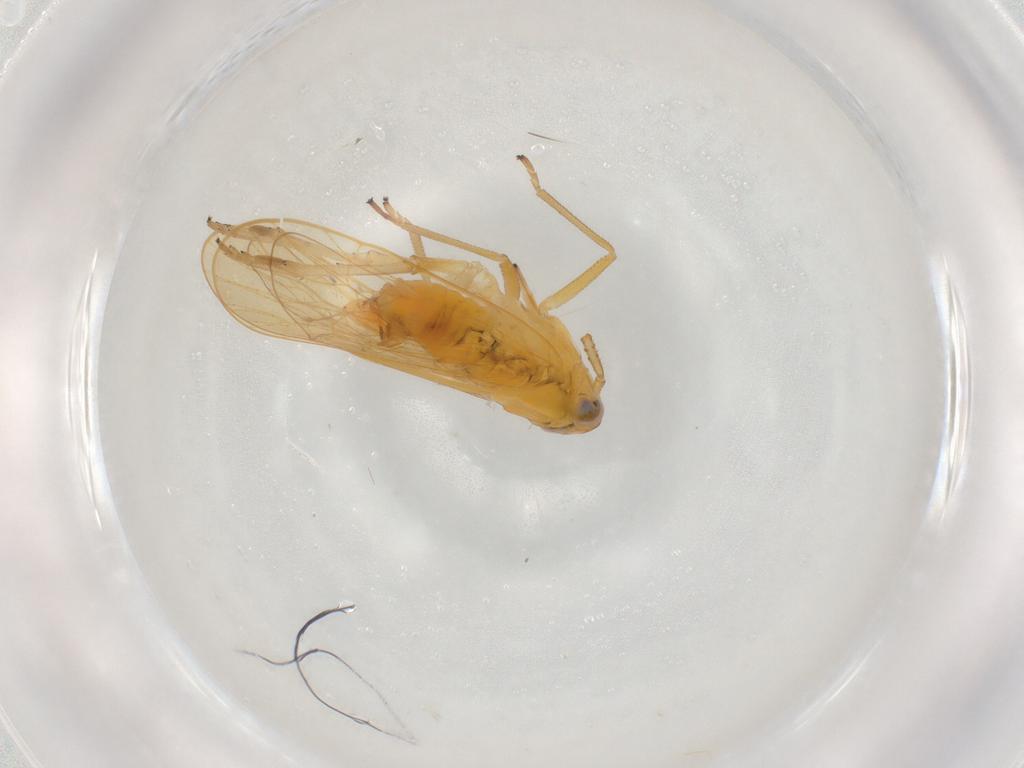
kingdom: Animalia
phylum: Arthropoda
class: Insecta
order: Hemiptera
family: Delphacidae
